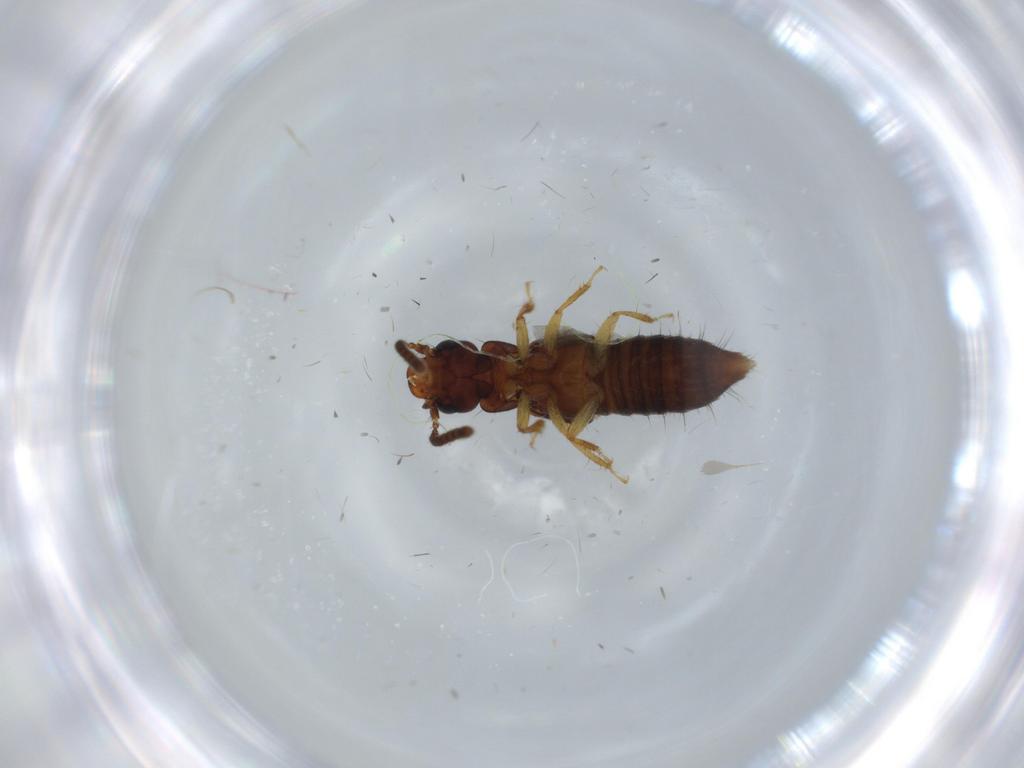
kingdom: Animalia
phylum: Arthropoda
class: Insecta
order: Coleoptera
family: Staphylinidae
